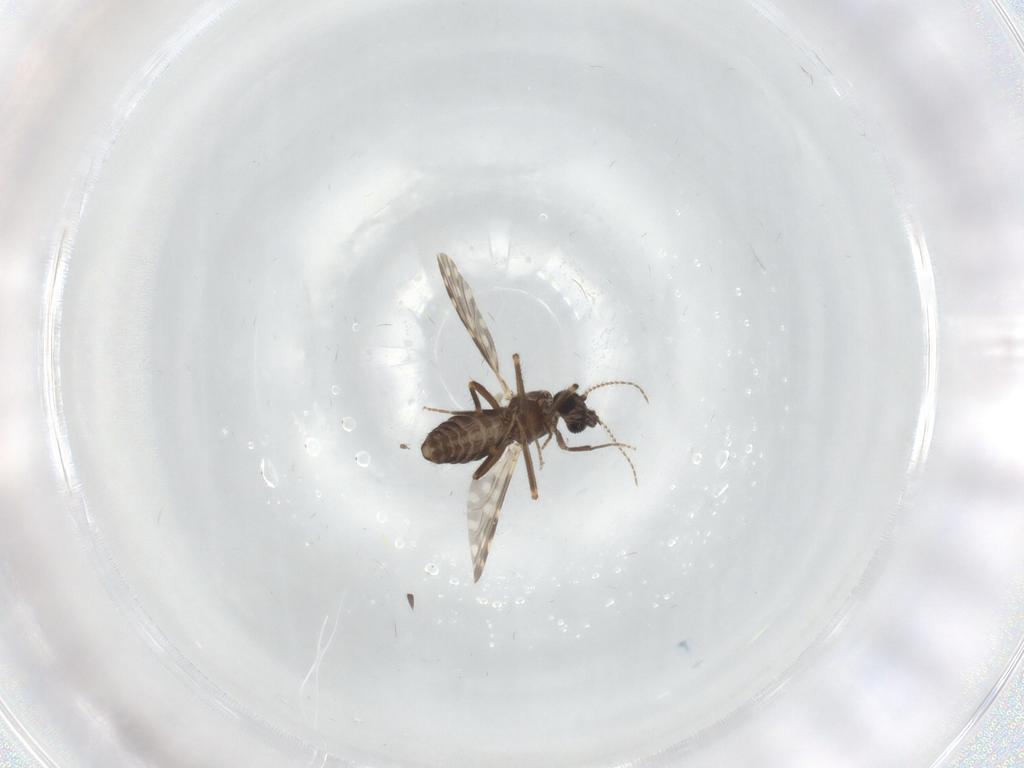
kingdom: Animalia
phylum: Arthropoda
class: Insecta
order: Diptera
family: Ceratopogonidae
